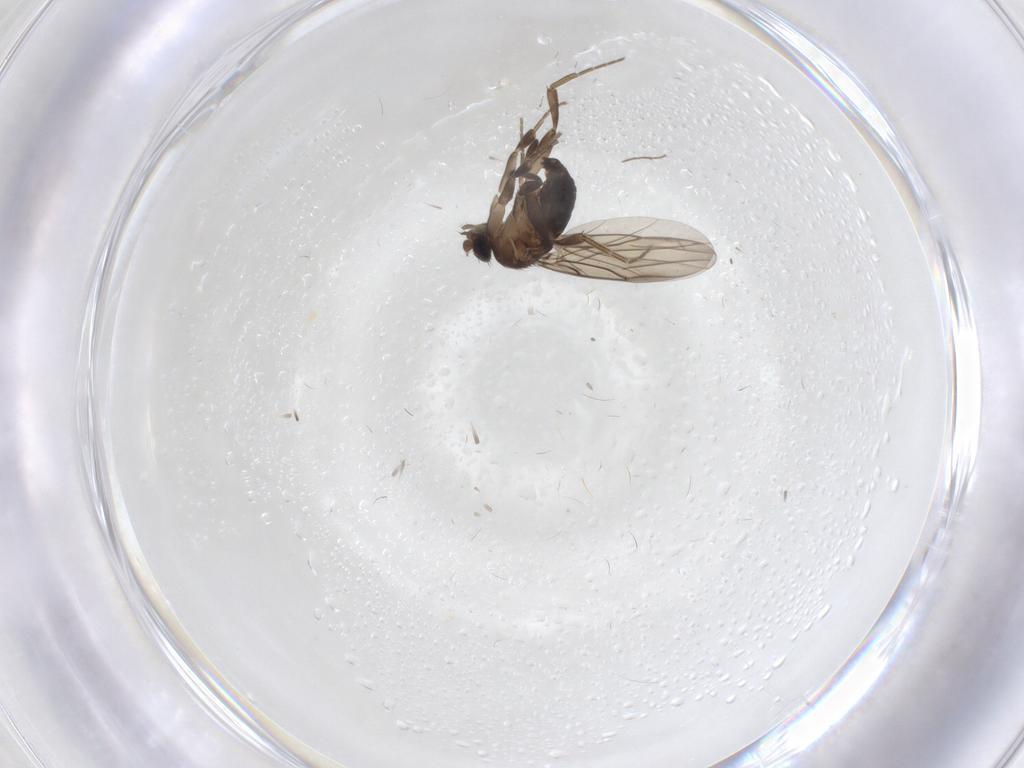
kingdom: Animalia
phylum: Arthropoda
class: Insecta
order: Diptera
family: Phoridae
